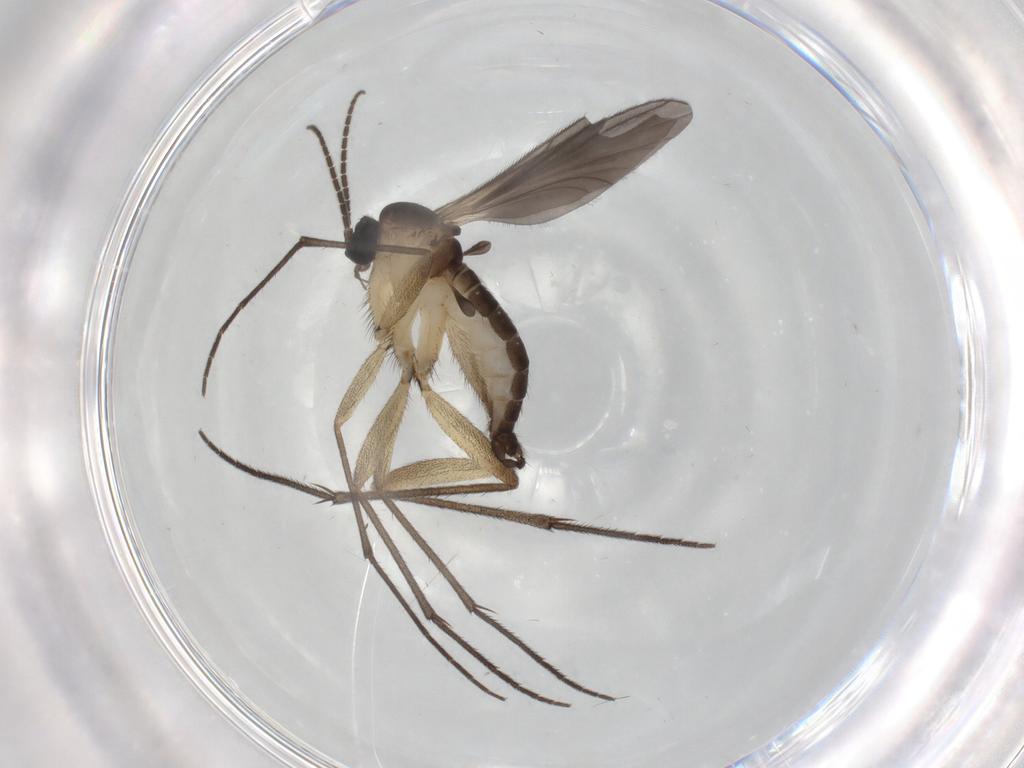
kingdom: Animalia
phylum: Arthropoda
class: Insecta
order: Diptera
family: Sciaridae
